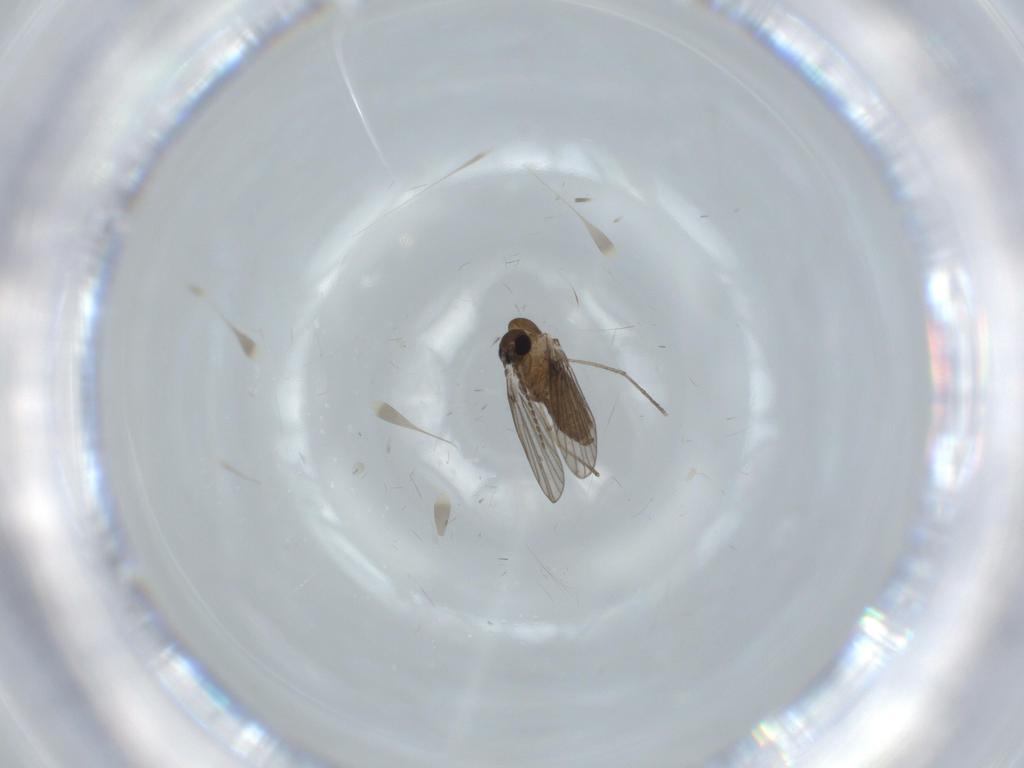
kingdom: Animalia
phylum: Arthropoda
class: Insecta
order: Diptera
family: Psychodidae
